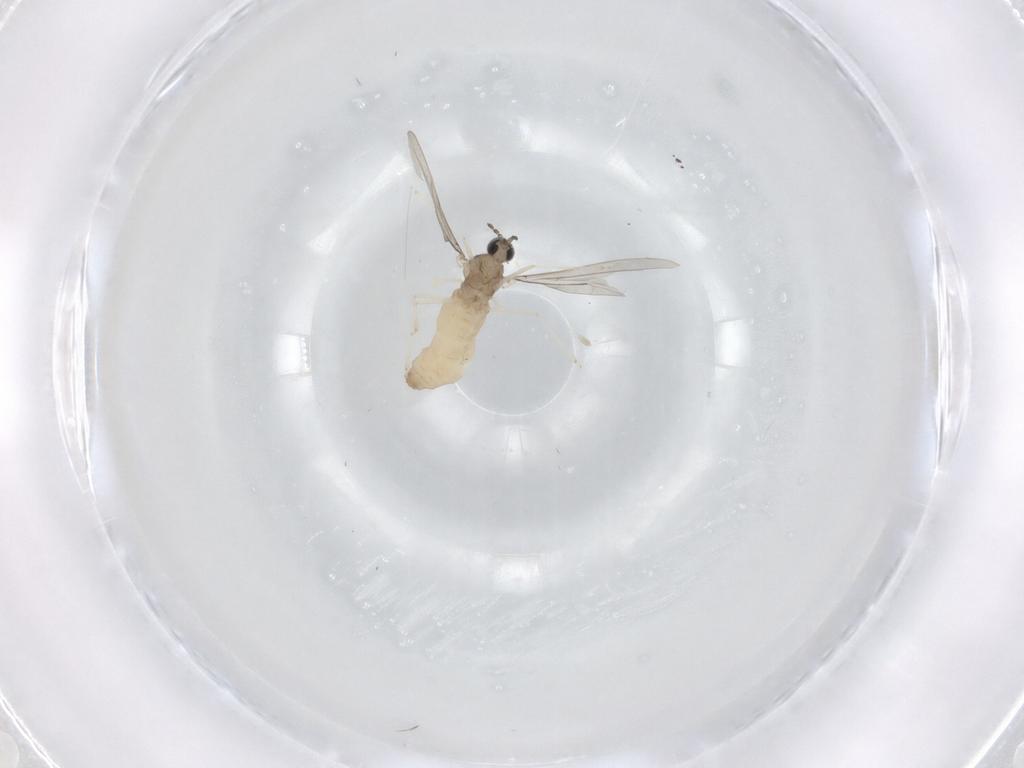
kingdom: Animalia
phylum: Arthropoda
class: Insecta
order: Diptera
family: Cecidomyiidae
